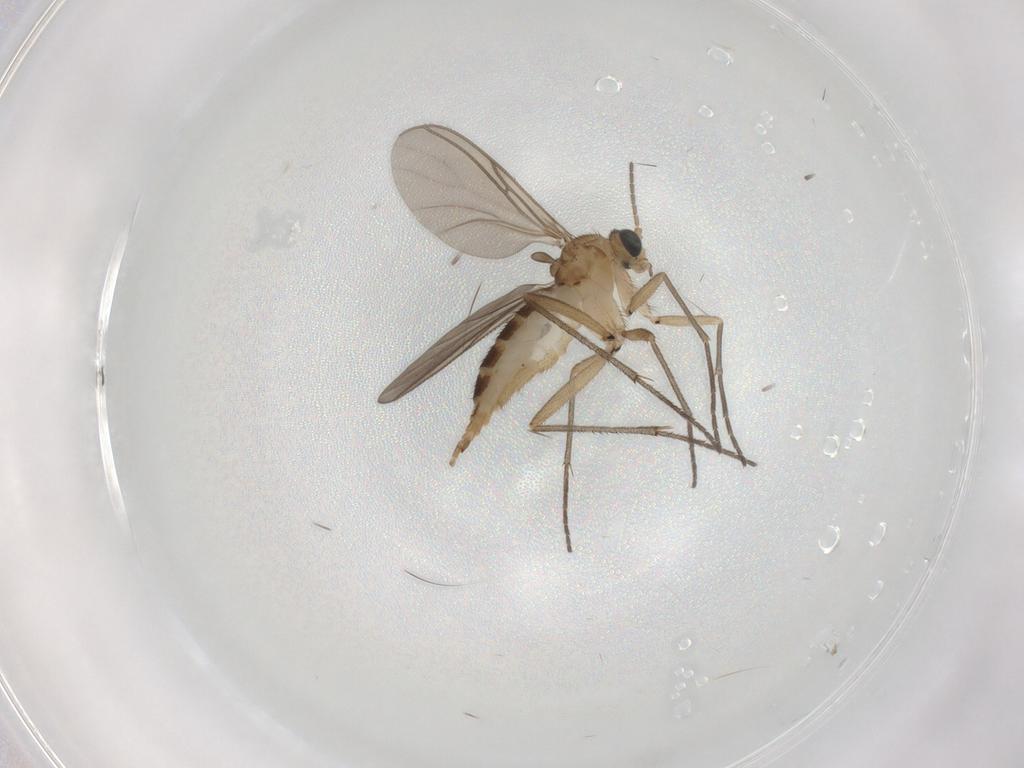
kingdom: Animalia
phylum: Arthropoda
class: Insecta
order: Diptera
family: Sciaridae
